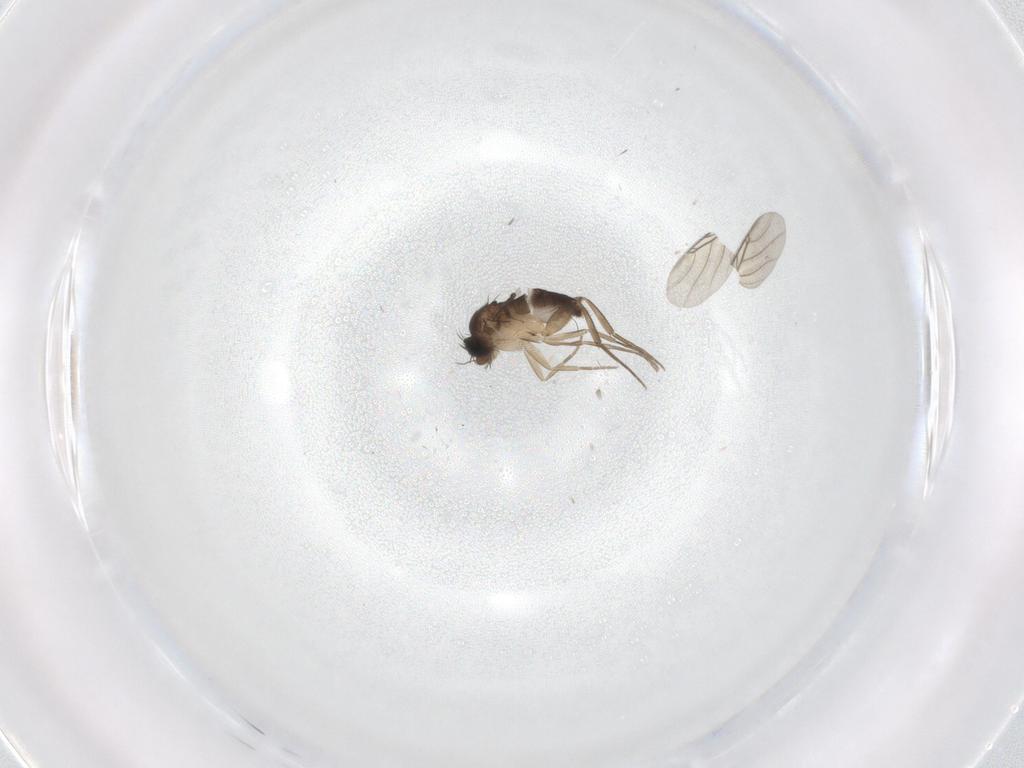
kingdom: Animalia
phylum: Arthropoda
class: Insecta
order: Diptera
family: Phoridae
